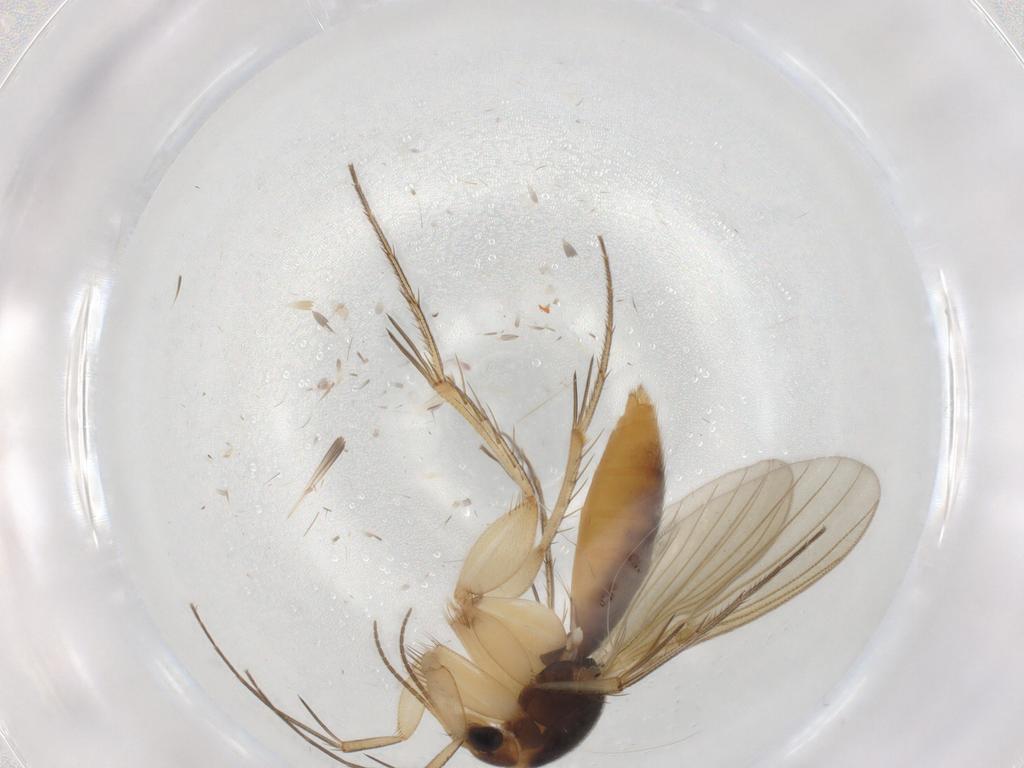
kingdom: Animalia
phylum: Arthropoda
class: Insecta
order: Diptera
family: Mycetophilidae
